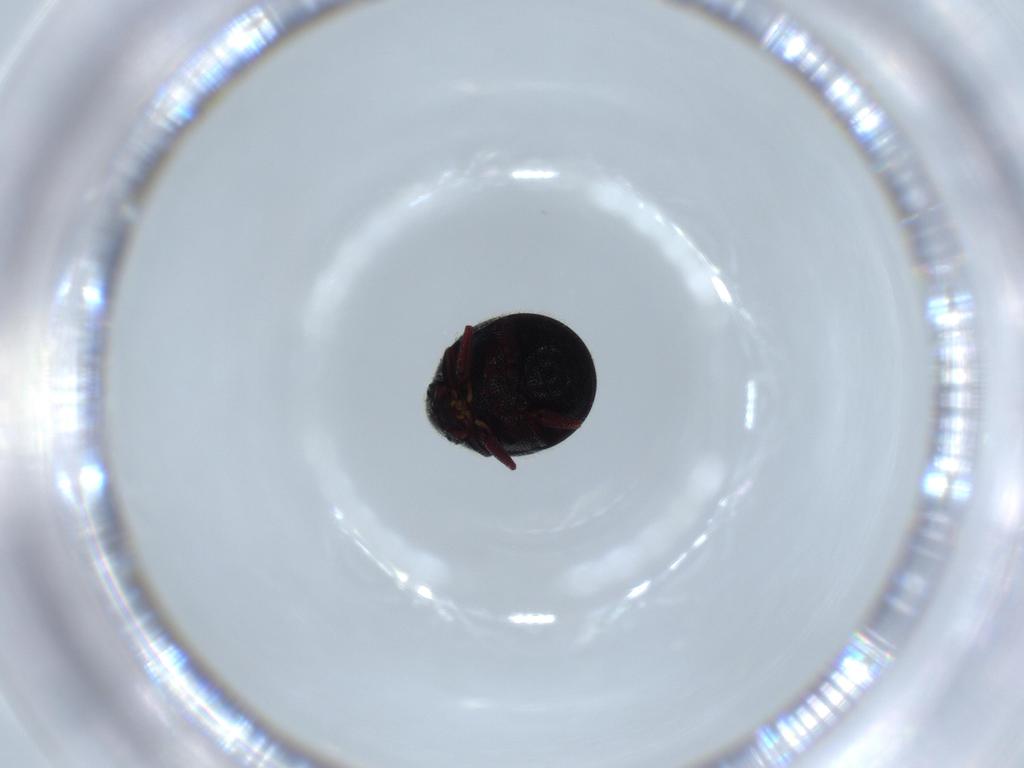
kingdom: Animalia
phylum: Arthropoda
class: Insecta
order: Coleoptera
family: Ptinidae
